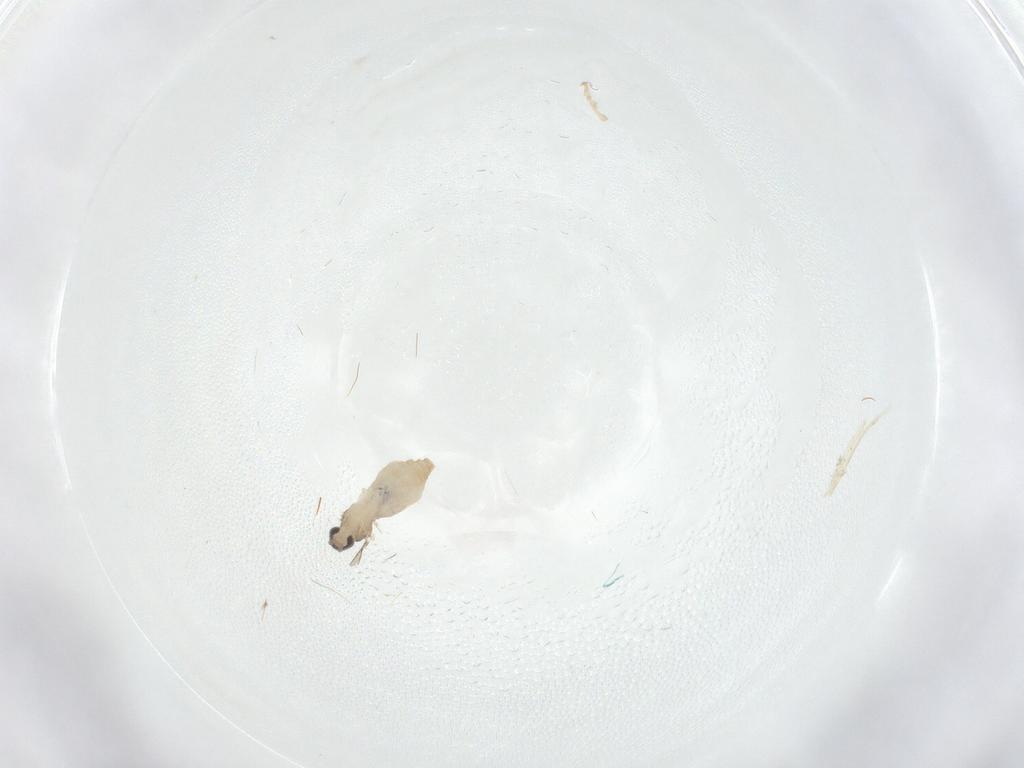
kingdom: Animalia
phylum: Arthropoda
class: Insecta
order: Diptera
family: Cecidomyiidae
